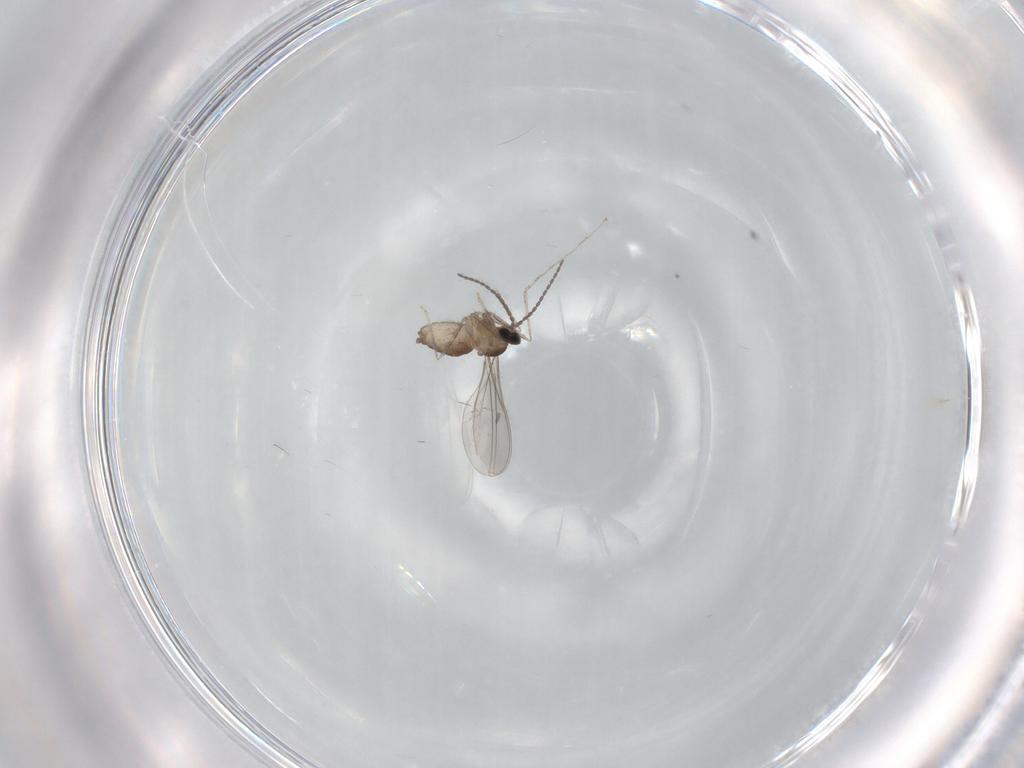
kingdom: Animalia
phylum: Arthropoda
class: Insecta
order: Diptera
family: Cecidomyiidae
